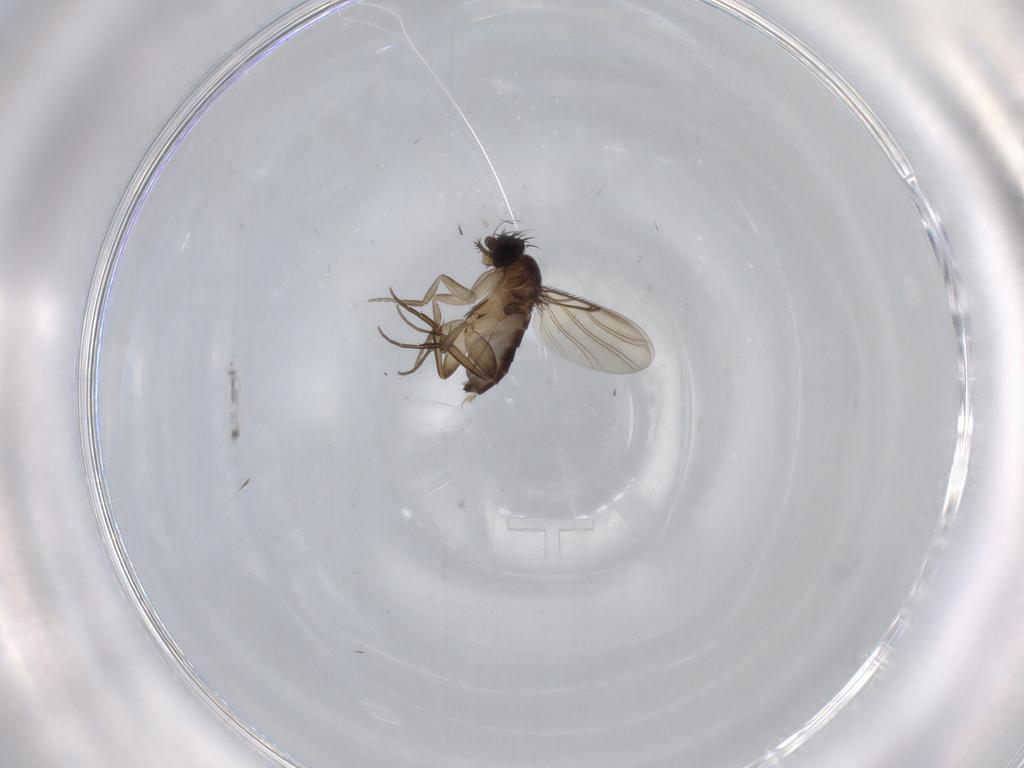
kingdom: Animalia
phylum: Arthropoda
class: Insecta
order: Diptera
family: Phoridae
